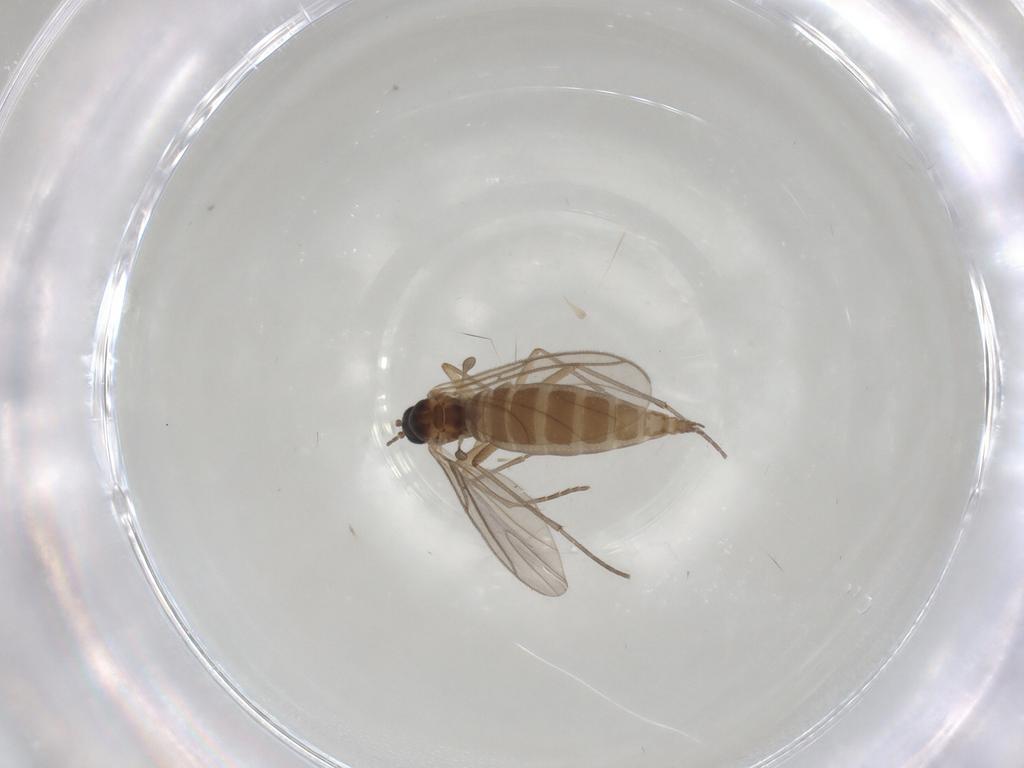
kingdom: Animalia
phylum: Arthropoda
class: Insecta
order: Diptera
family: Sciaridae
